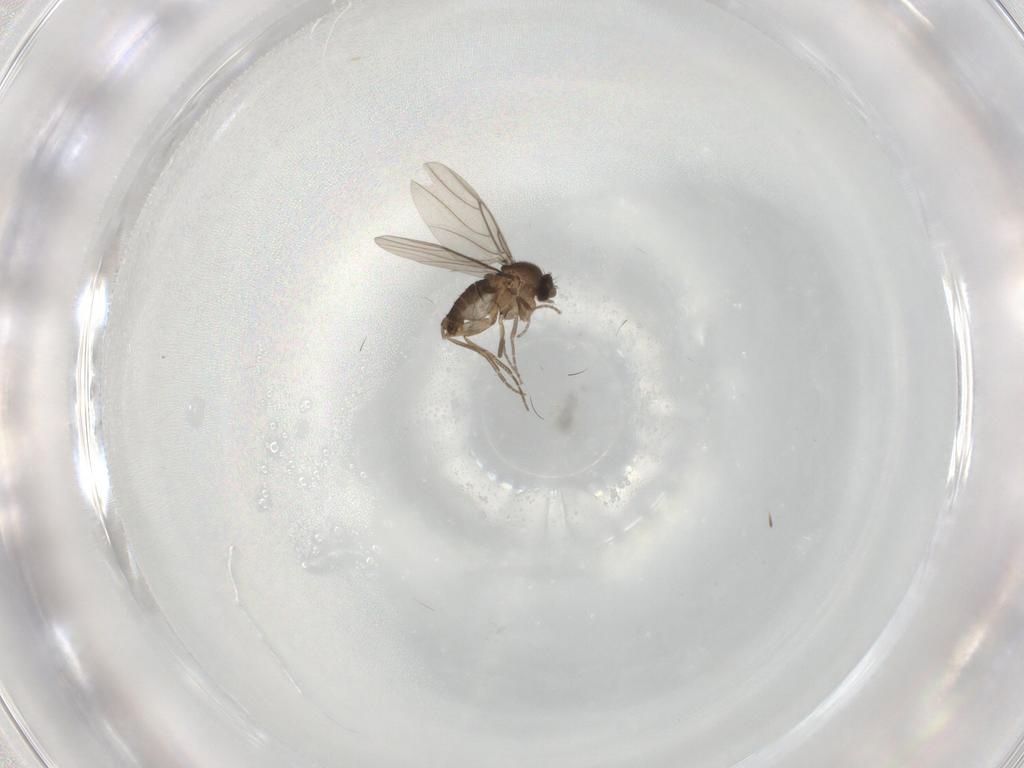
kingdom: Animalia
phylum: Arthropoda
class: Insecta
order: Diptera
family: Phoridae
